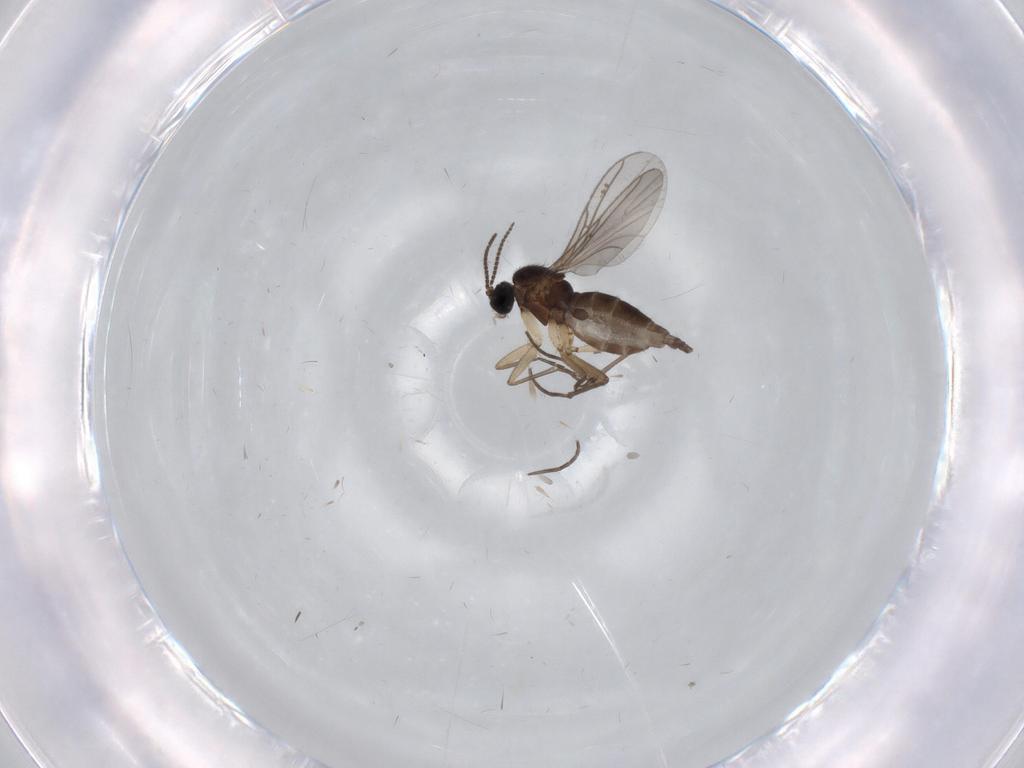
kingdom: Animalia
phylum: Arthropoda
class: Insecta
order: Diptera
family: Sciaridae
